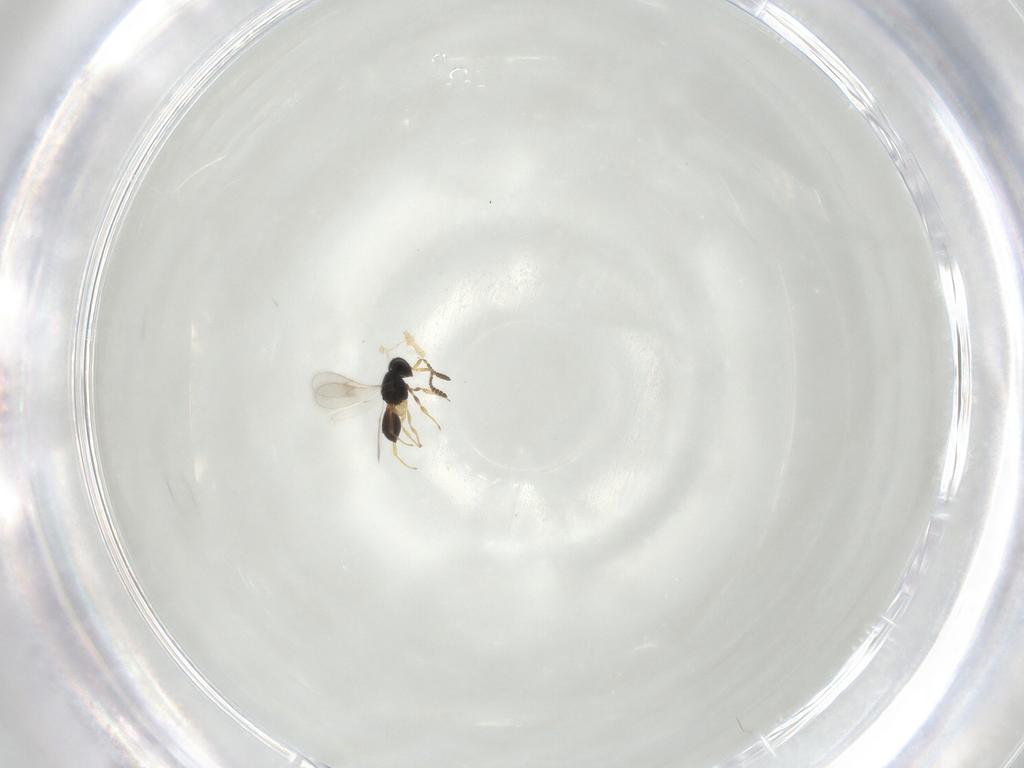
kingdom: Animalia
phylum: Arthropoda
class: Insecta
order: Hymenoptera
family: Scelionidae
